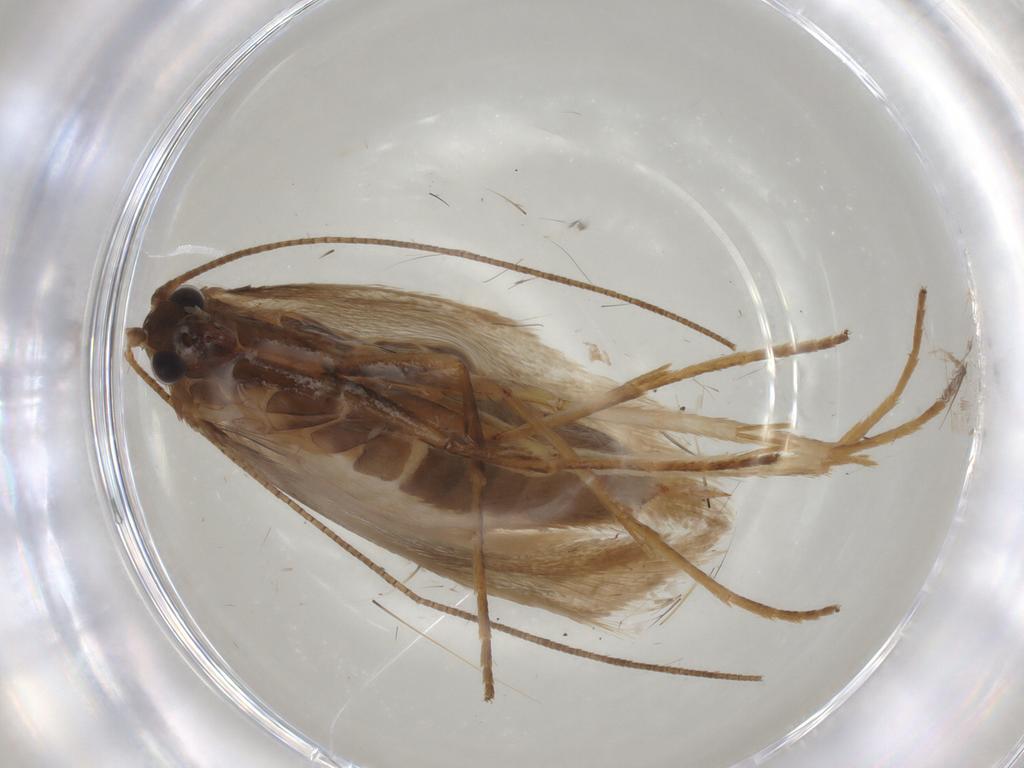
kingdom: Animalia
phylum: Arthropoda
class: Insecta
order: Lepidoptera
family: Adelidae
